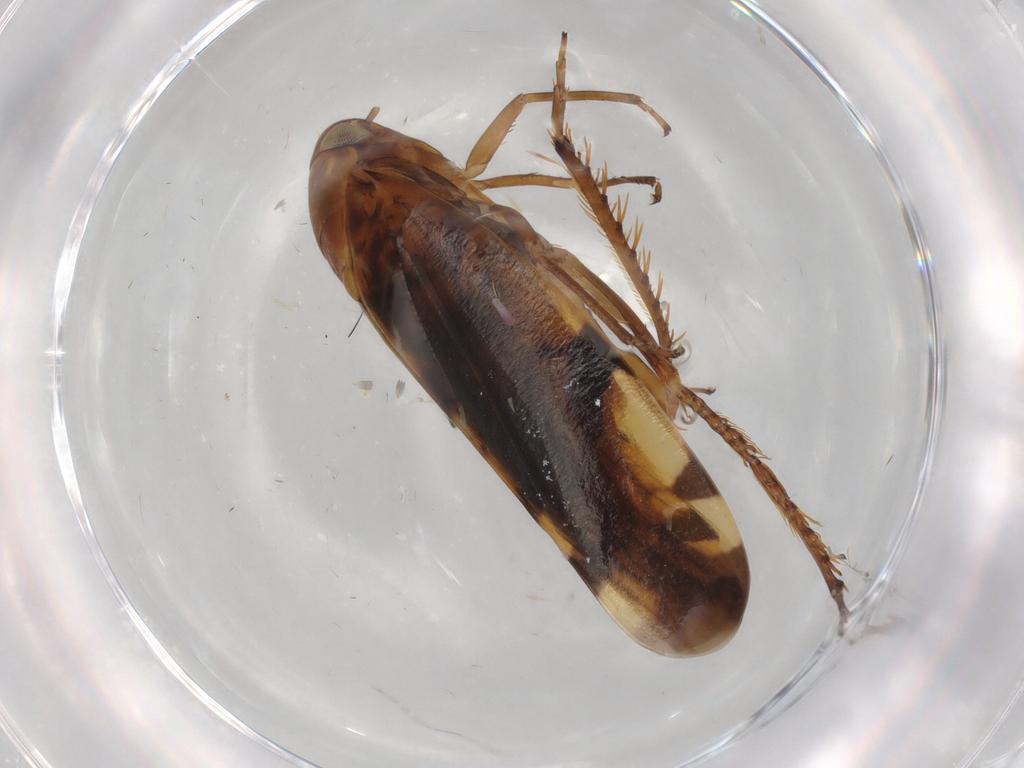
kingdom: Animalia
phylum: Arthropoda
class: Insecta
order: Hemiptera
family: Cicadellidae
